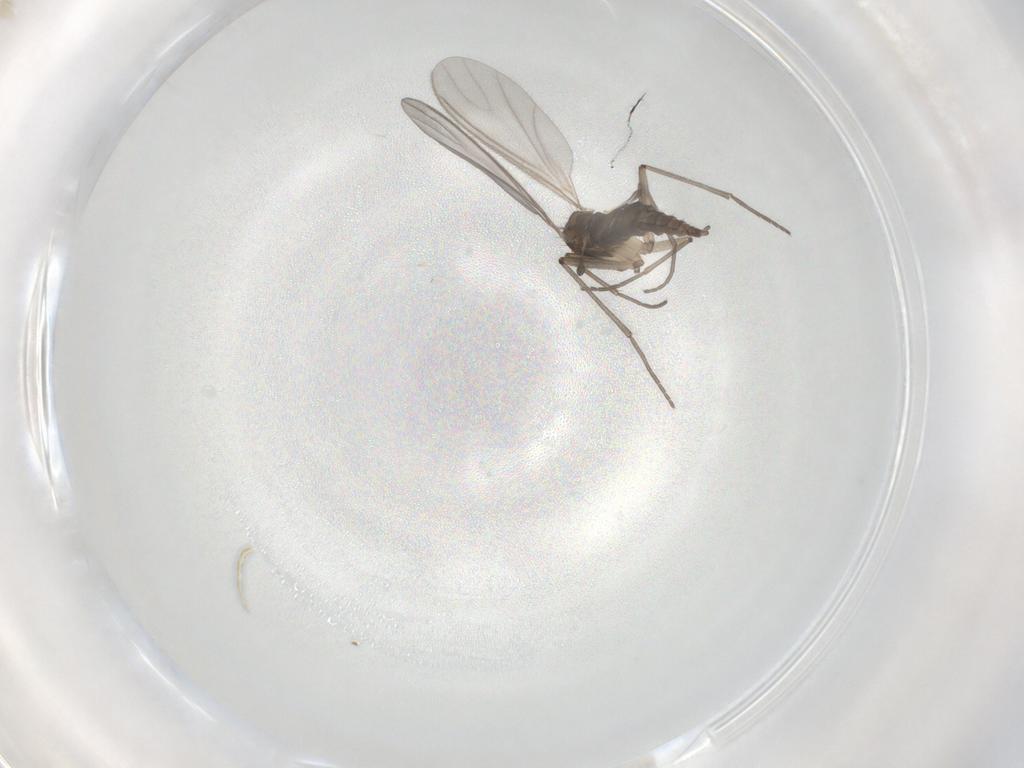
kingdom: Animalia
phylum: Arthropoda
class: Insecta
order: Diptera
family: Sciaridae
